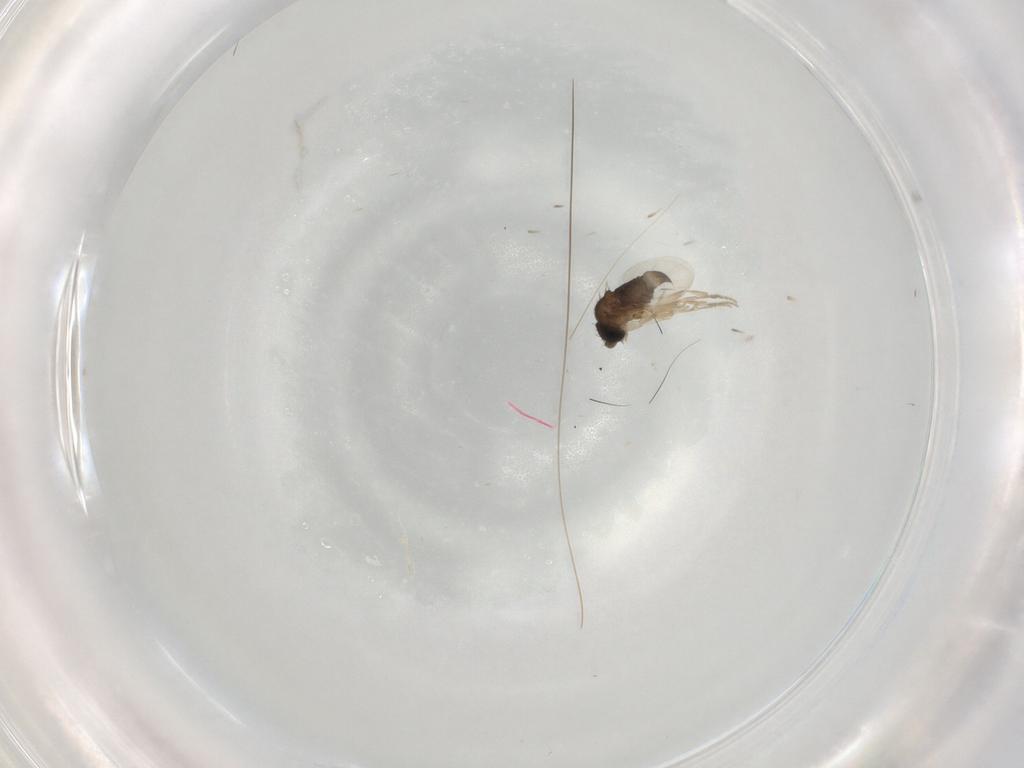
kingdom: Animalia
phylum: Arthropoda
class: Insecta
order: Diptera
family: Phoridae
